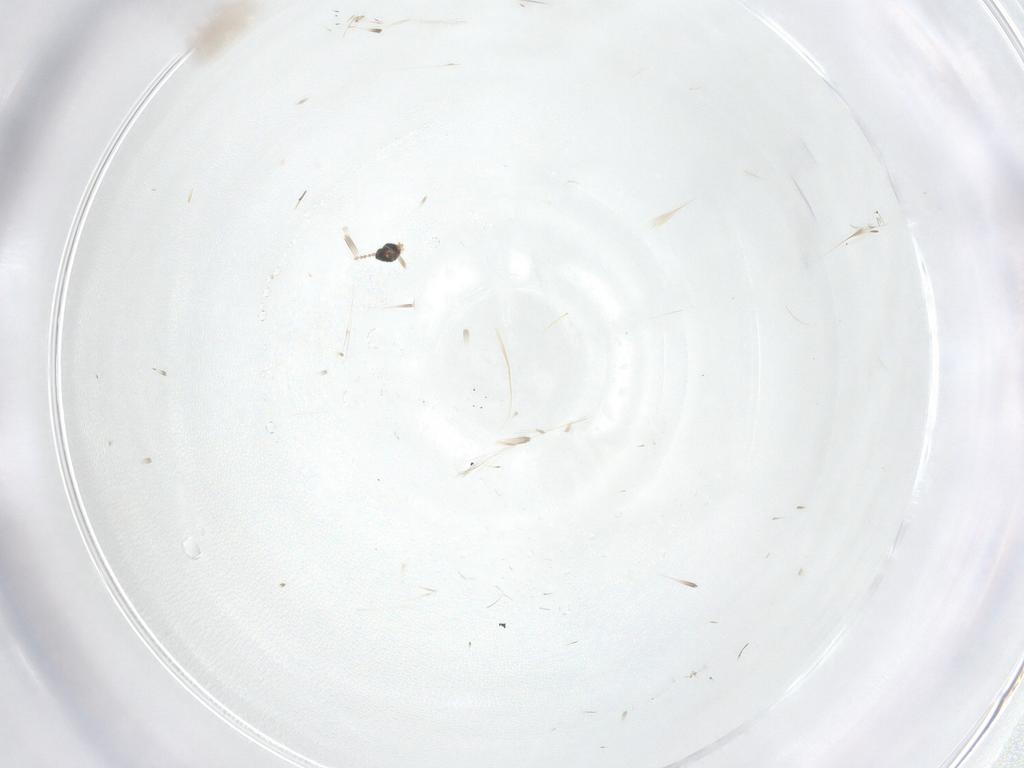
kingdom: Animalia
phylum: Arthropoda
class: Insecta
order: Diptera
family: Cecidomyiidae
